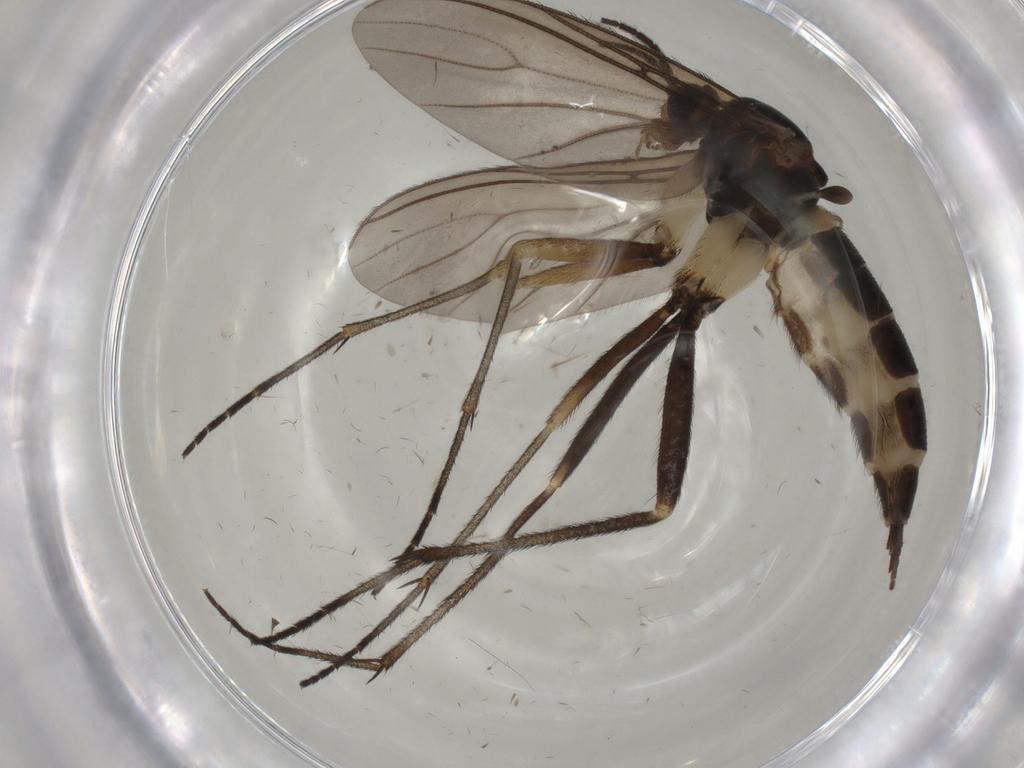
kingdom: Animalia
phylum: Arthropoda
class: Insecta
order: Diptera
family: Sciaridae
